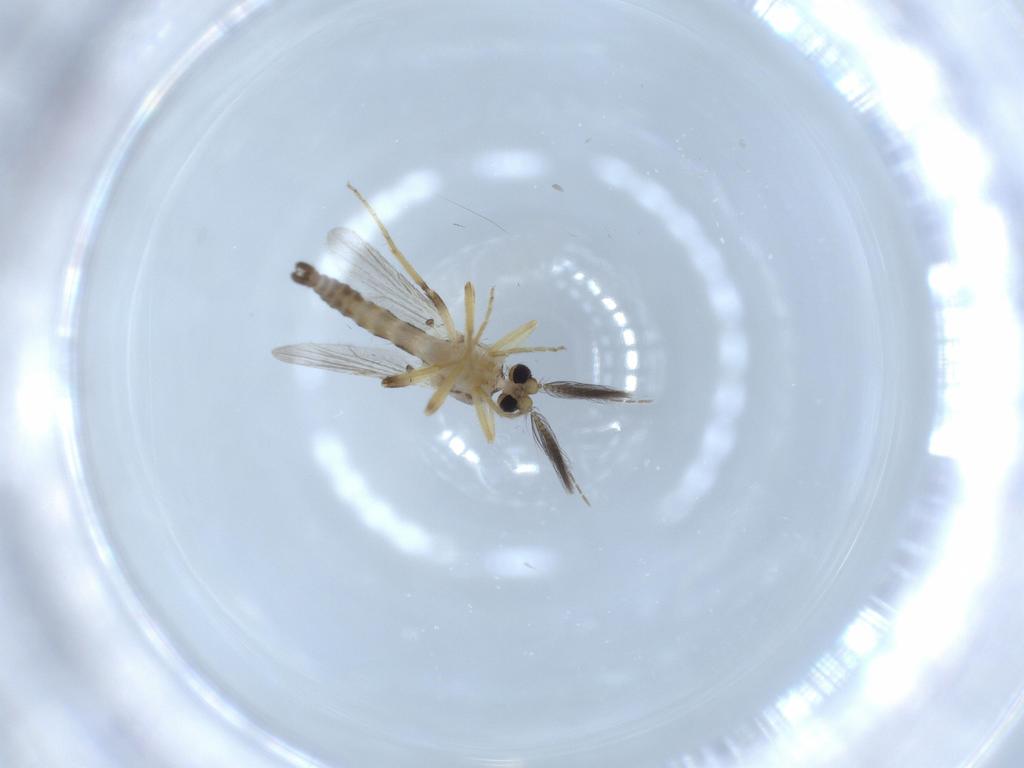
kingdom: Animalia
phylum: Arthropoda
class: Insecta
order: Diptera
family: Ceratopogonidae
